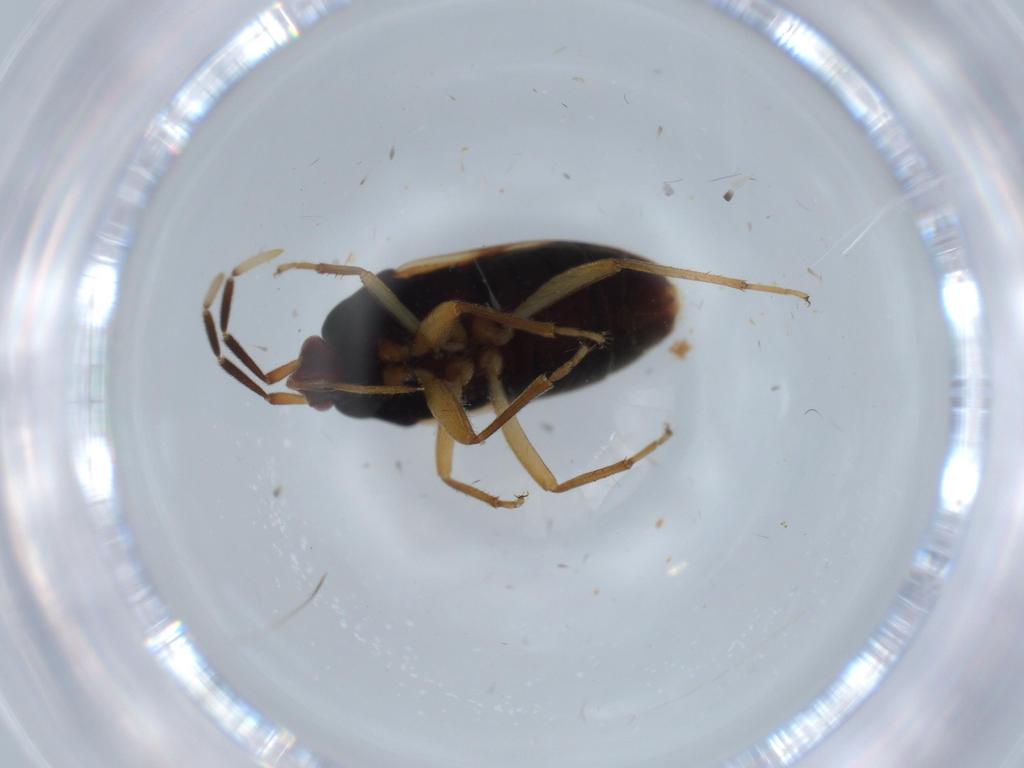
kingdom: Animalia
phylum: Arthropoda
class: Insecta
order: Hemiptera
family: Rhyparochromidae
